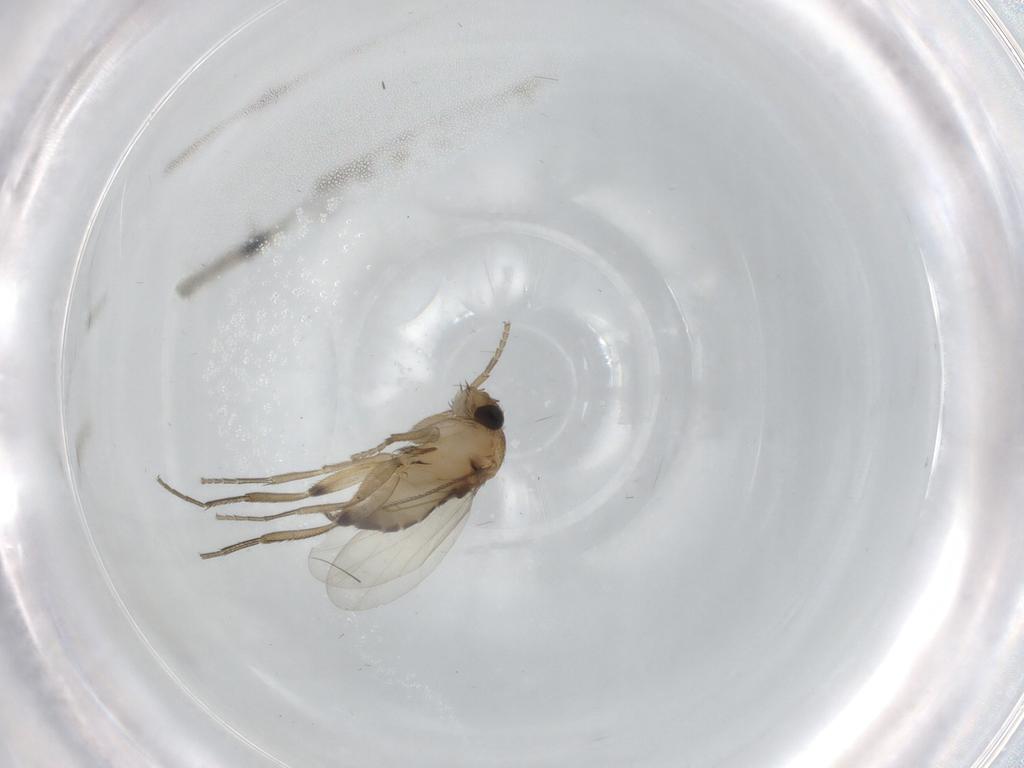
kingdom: Animalia
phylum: Arthropoda
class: Insecta
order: Diptera
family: Phoridae
